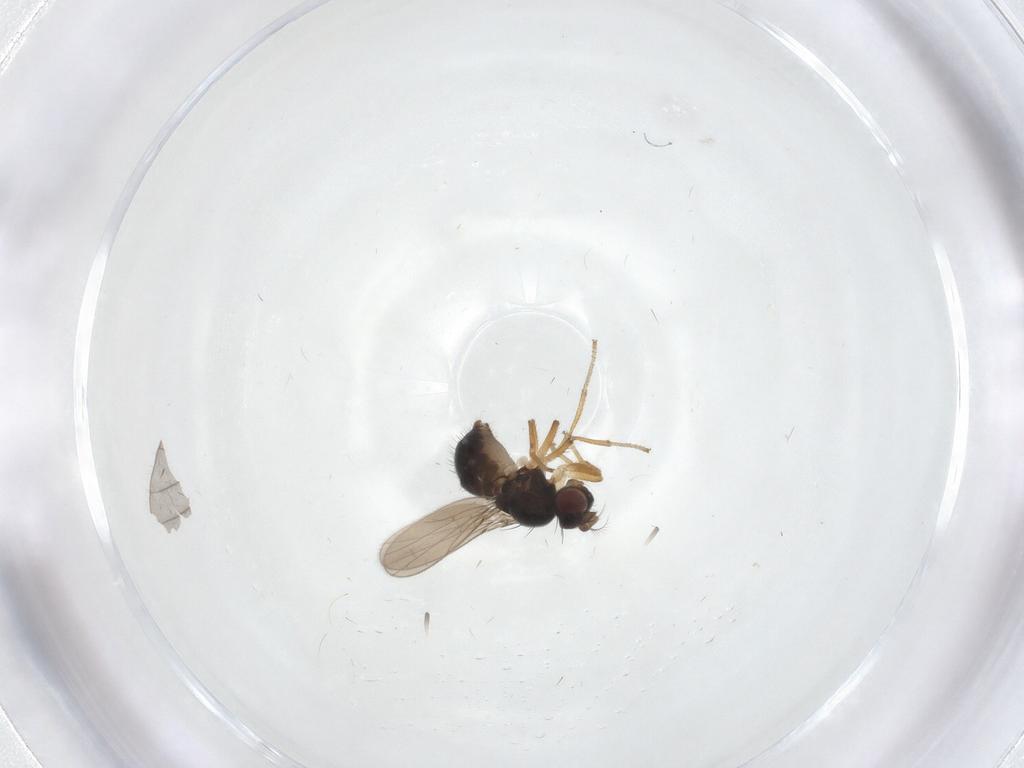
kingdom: Animalia
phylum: Arthropoda
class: Insecta
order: Diptera
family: Ephydridae
